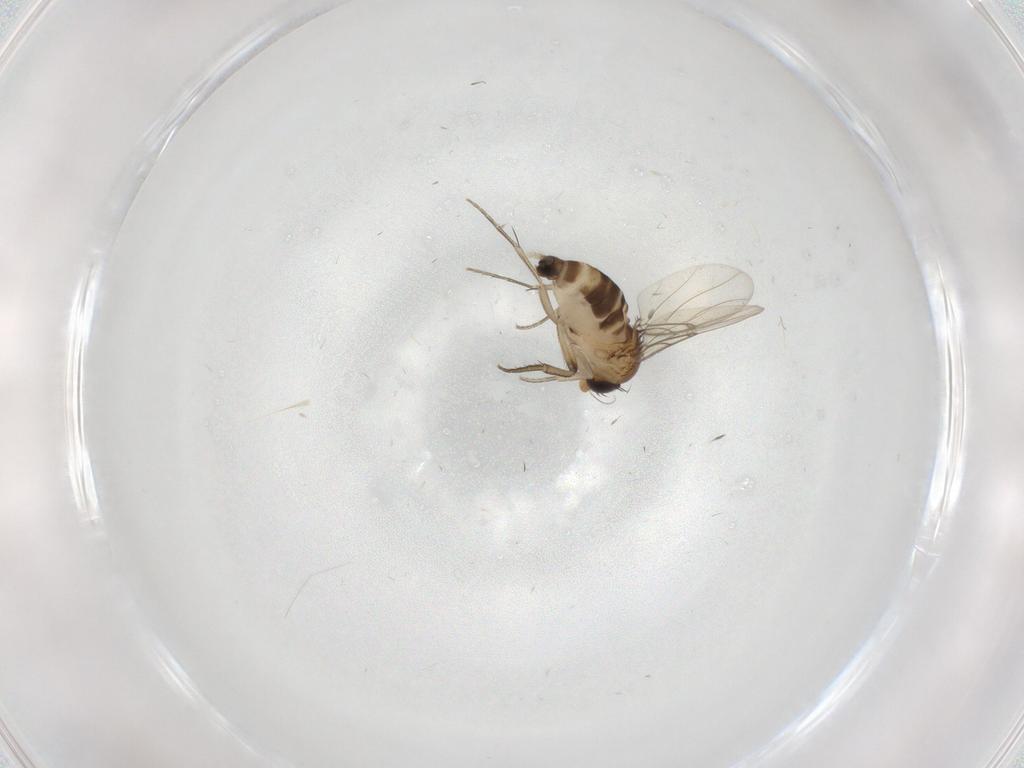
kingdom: Animalia
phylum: Arthropoda
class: Insecta
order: Diptera
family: Phoridae
